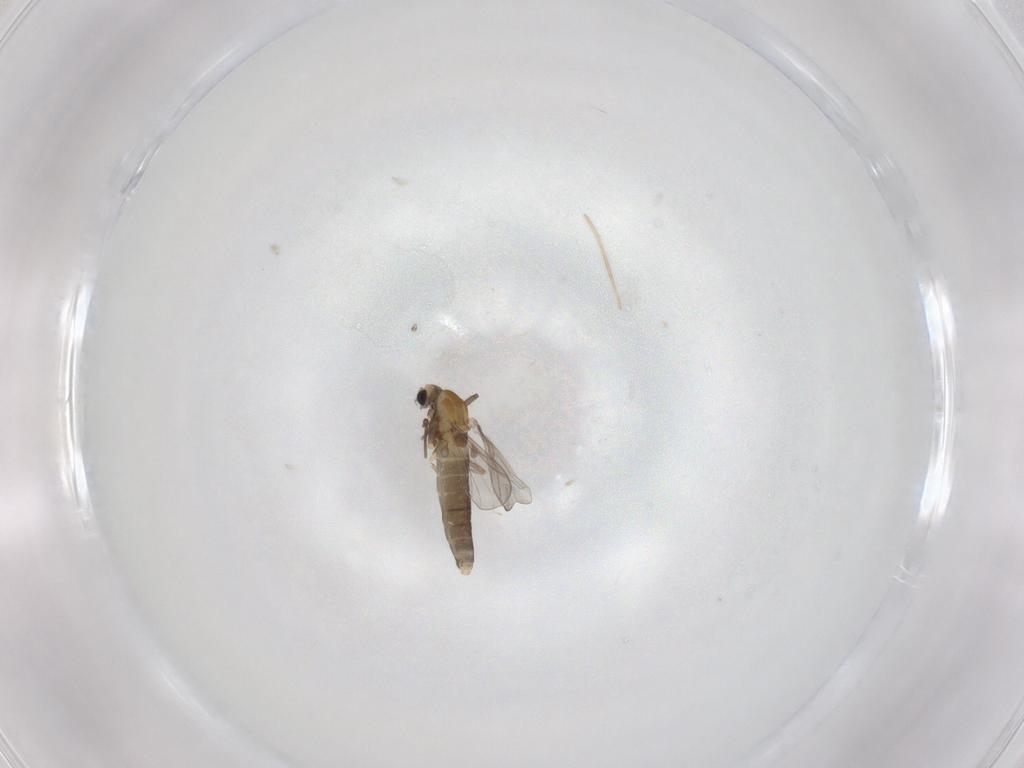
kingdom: Animalia
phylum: Arthropoda
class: Insecta
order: Diptera
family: Chironomidae
